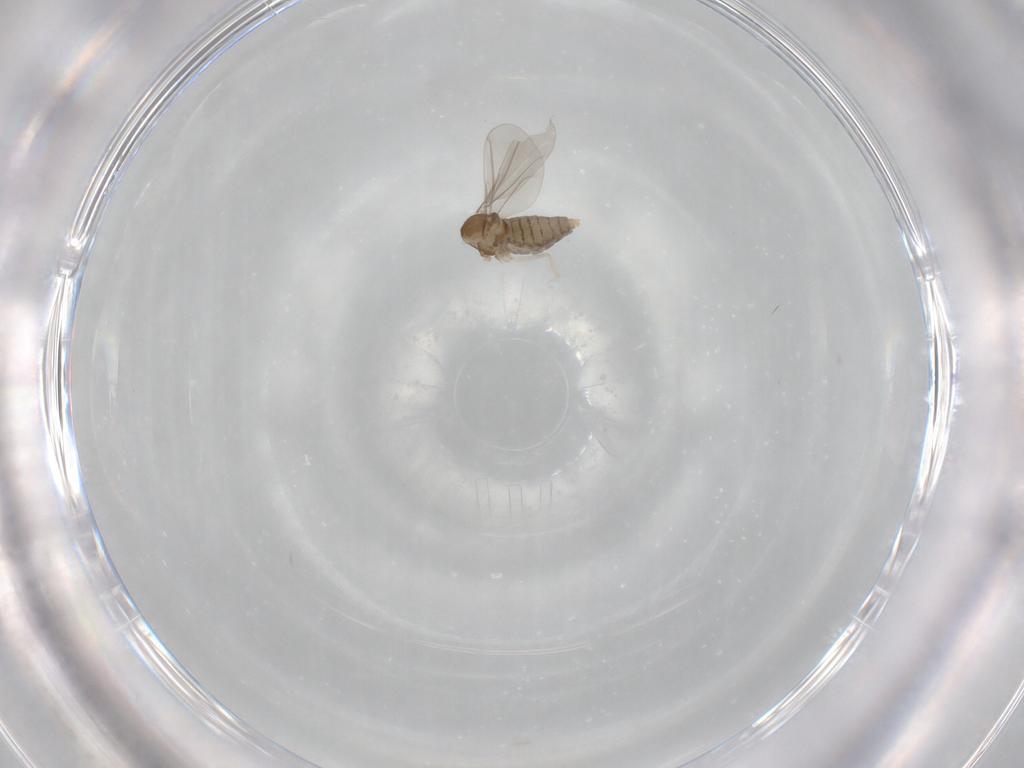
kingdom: Animalia
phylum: Arthropoda
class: Insecta
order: Diptera
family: Cecidomyiidae
